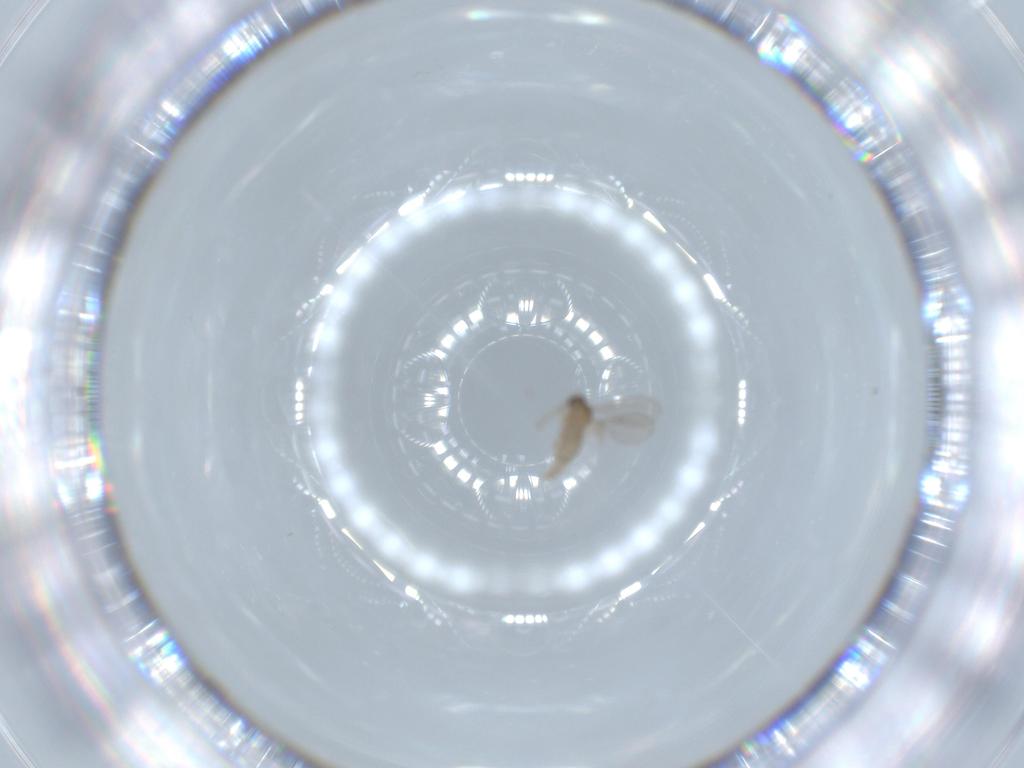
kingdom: Animalia
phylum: Arthropoda
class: Insecta
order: Diptera
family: Cecidomyiidae
